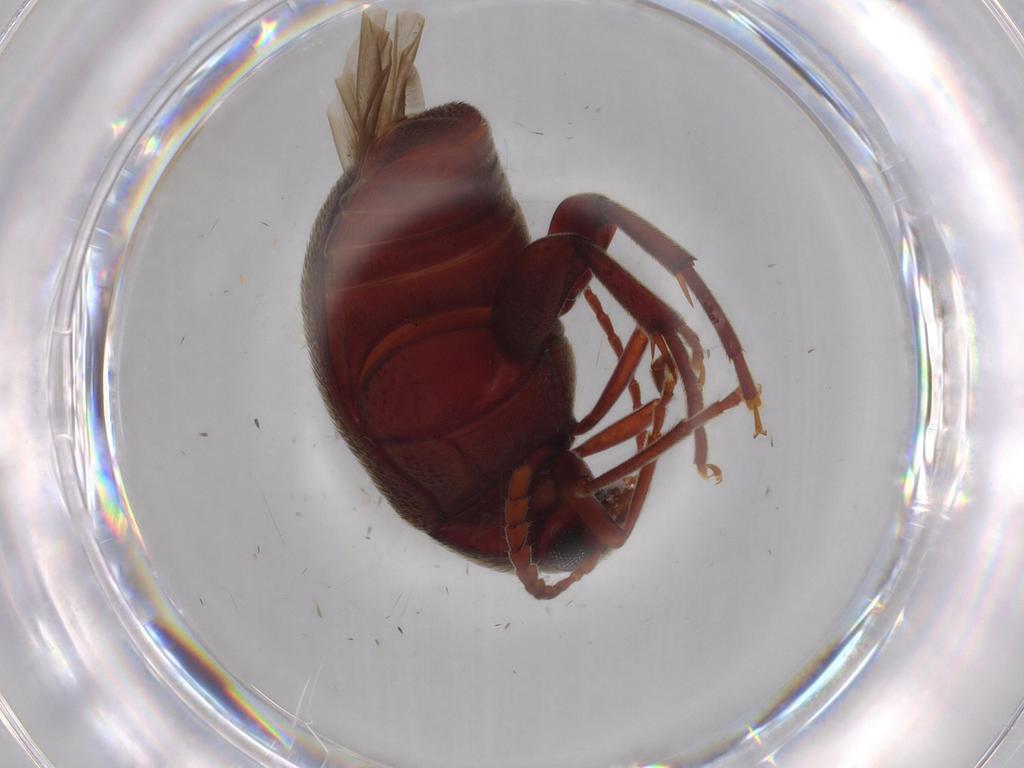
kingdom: Animalia
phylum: Arthropoda
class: Insecta
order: Coleoptera
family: Chrysomelidae
